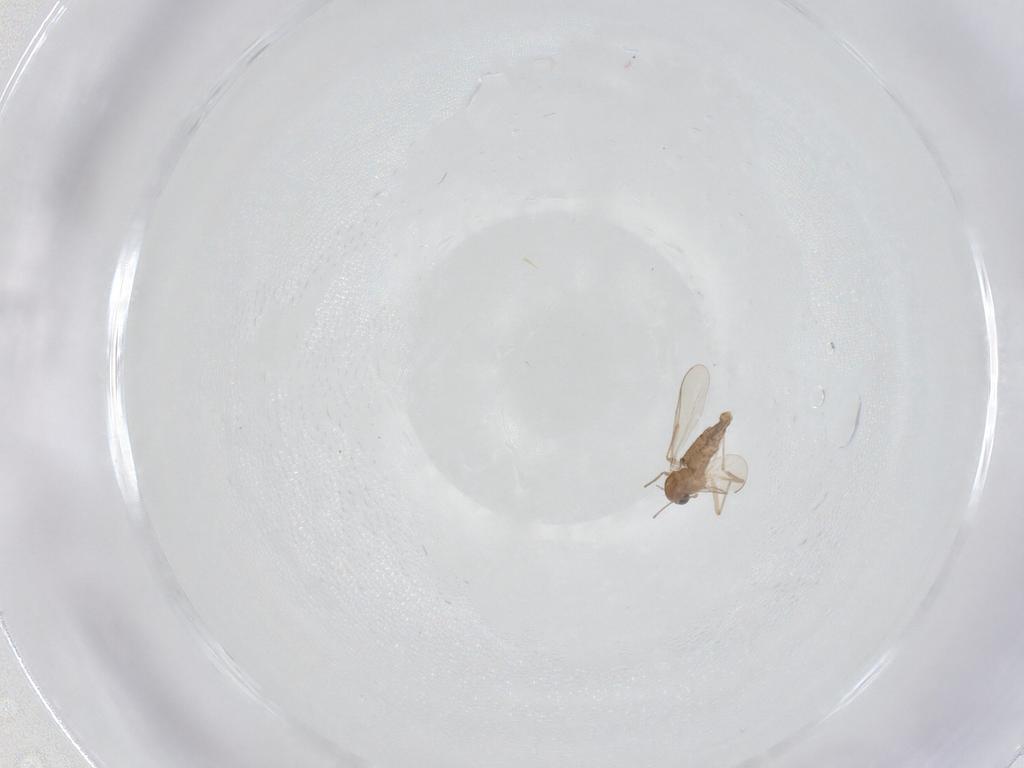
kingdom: Animalia
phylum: Arthropoda
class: Insecta
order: Diptera
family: Chironomidae
